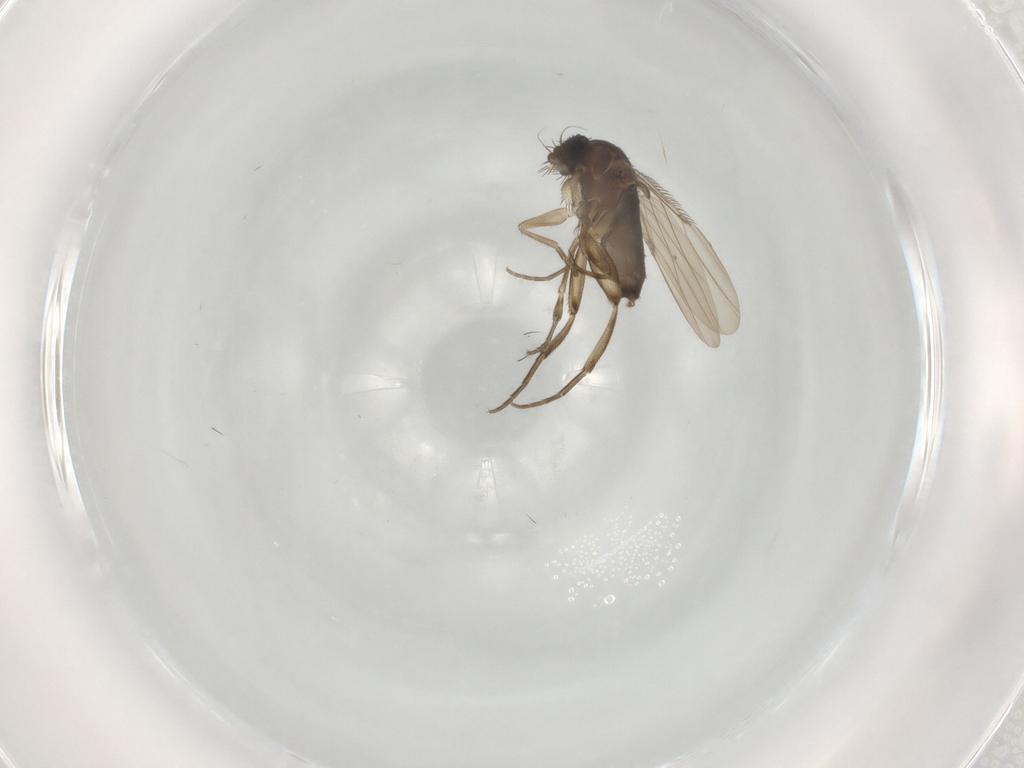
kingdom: Animalia
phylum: Arthropoda
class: Insecta
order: Diptera
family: Phoridae
